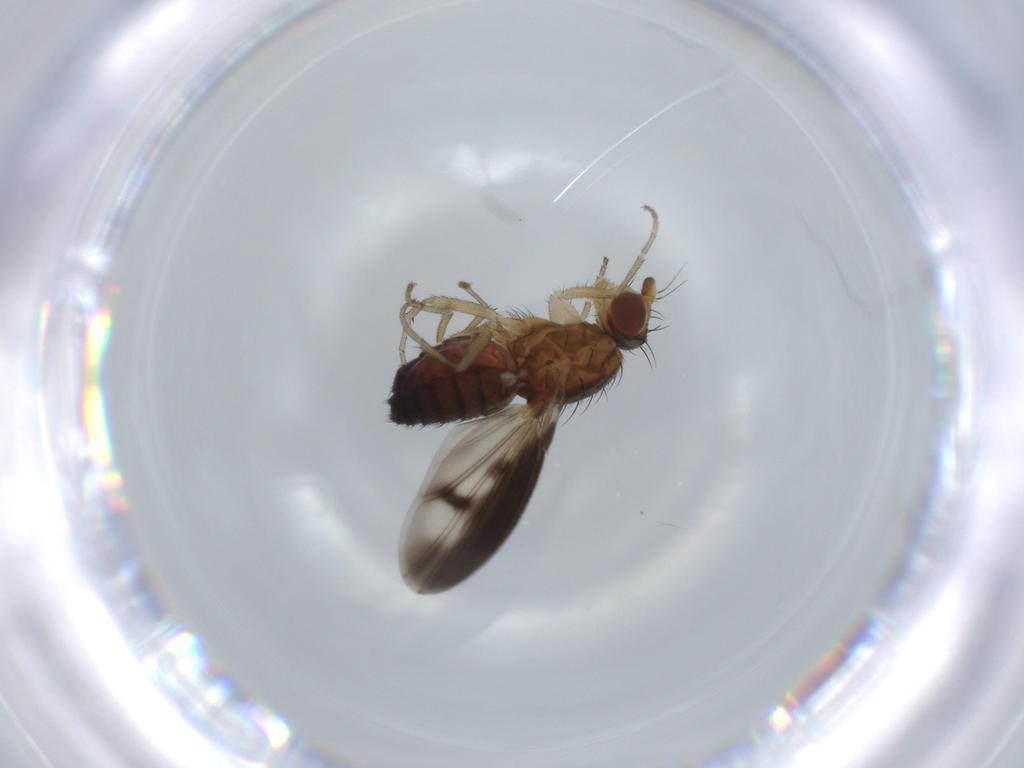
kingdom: Animalia
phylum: Arthropoda
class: Insecta
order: Diptera
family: Heleomyzidae
